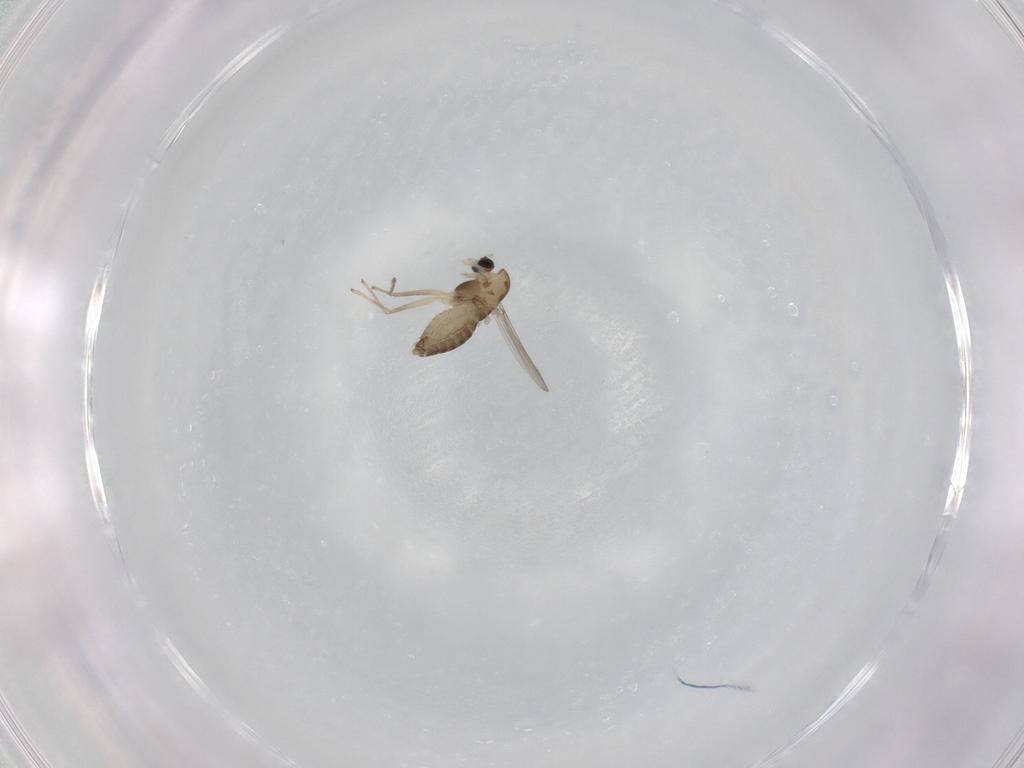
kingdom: Animalia
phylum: Arthropoda
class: Insecta
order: Diptera
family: Chironomidae
